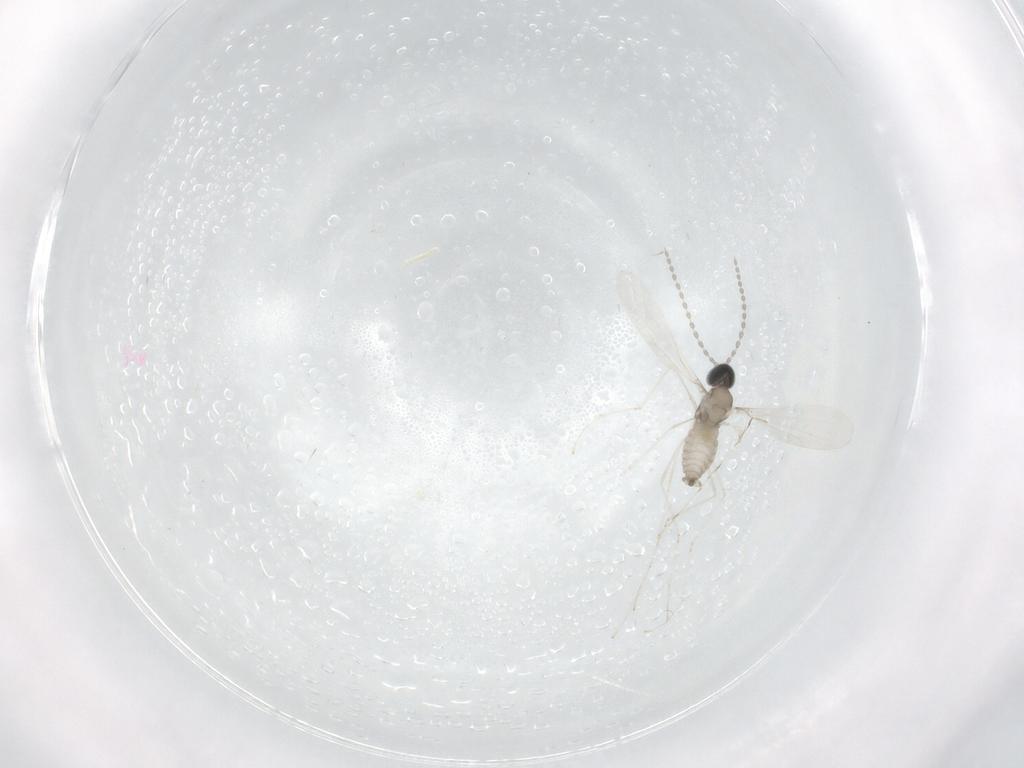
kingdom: Animalia
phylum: Arthropoda
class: Insecta
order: Diptera
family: Cecidomyiidae
